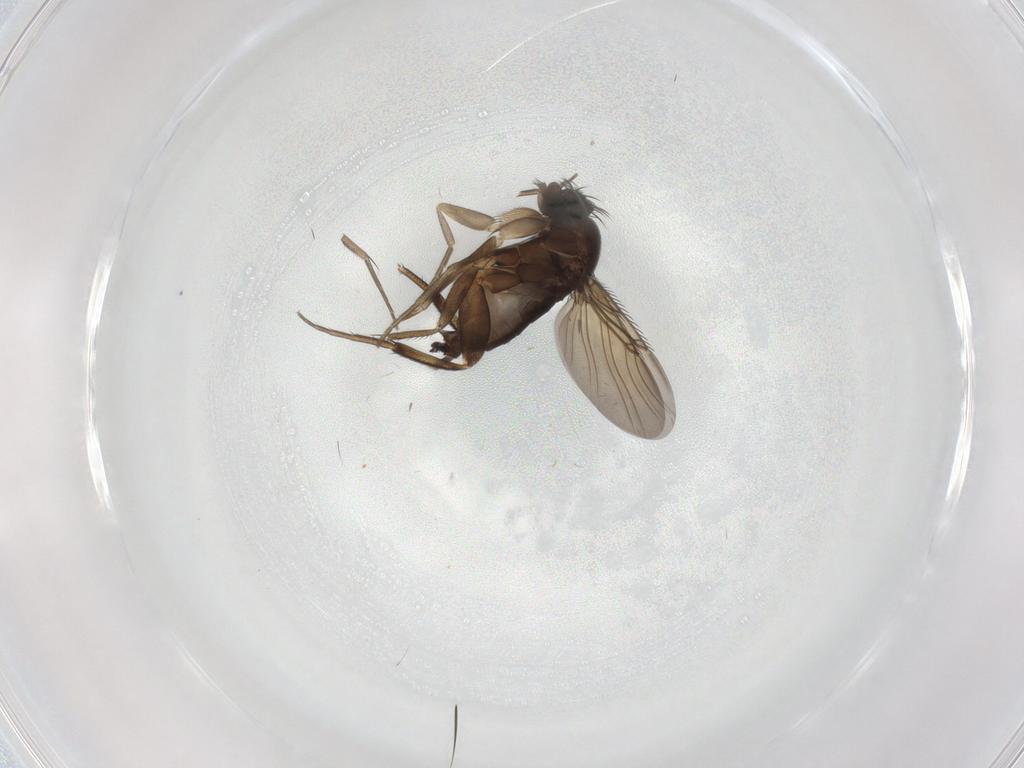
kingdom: Animalia
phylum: Arthropoda
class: Insecta
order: Diptera
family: Phoridae
